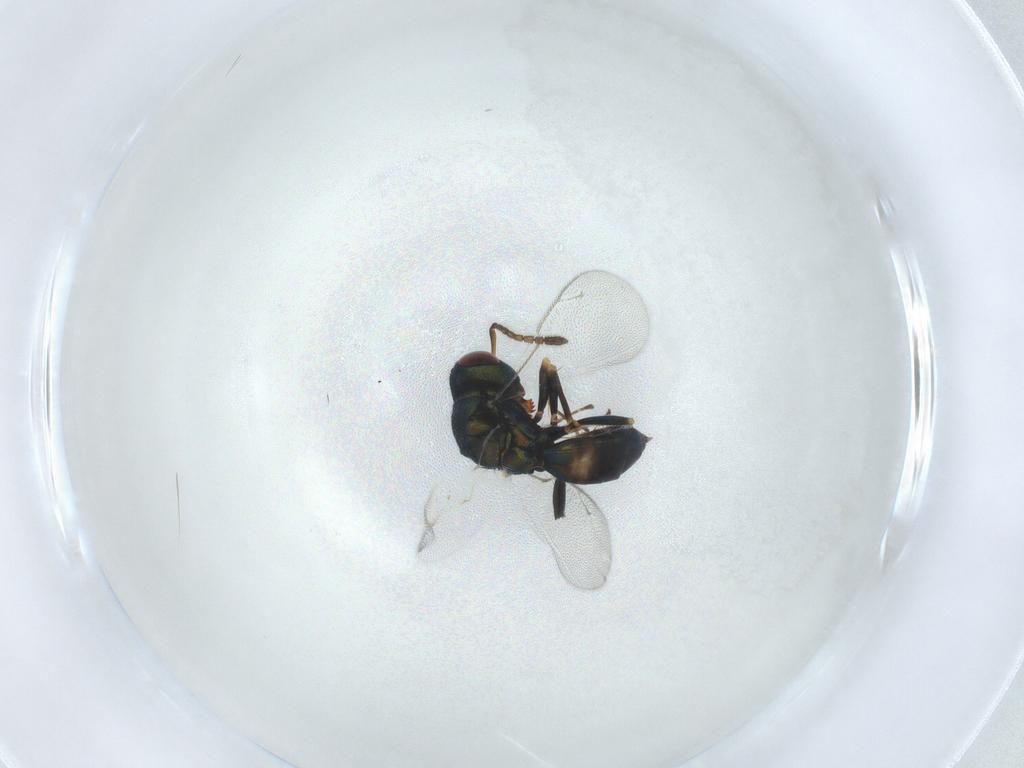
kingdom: Animalia
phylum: Arthropoda
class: Insecta
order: Hymenoptera
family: Pteromalidae
